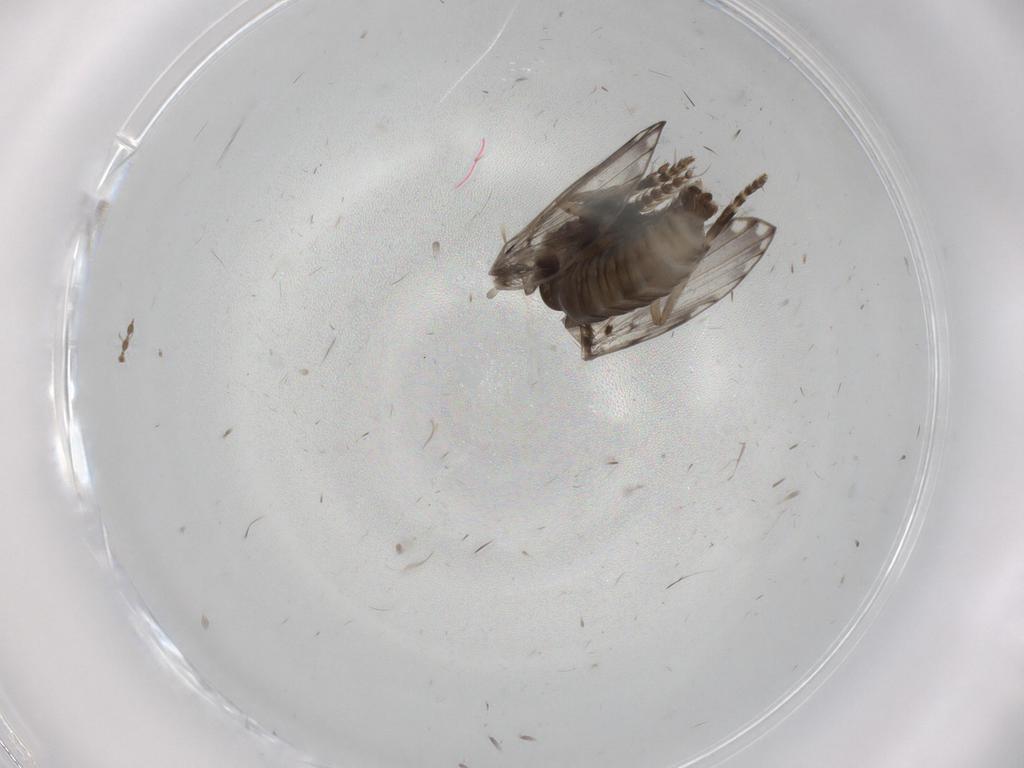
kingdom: Animalia
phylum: Arthropoda
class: Insecta
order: Diptera
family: Psychodidae
